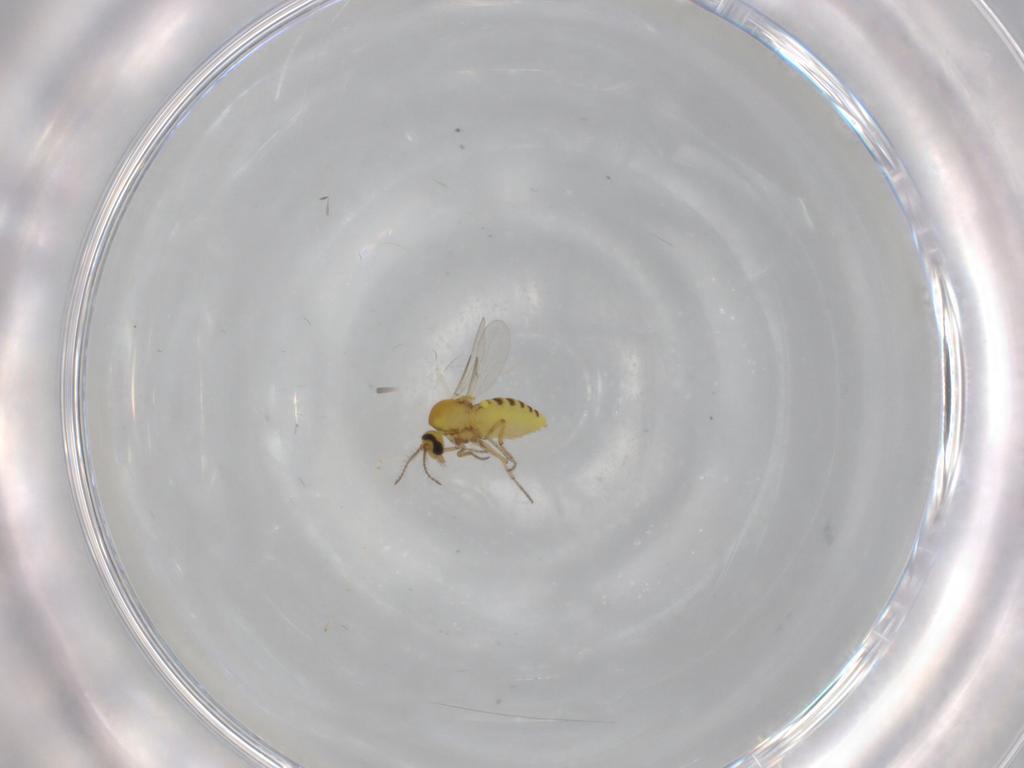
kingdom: Animalia
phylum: Arthropoda
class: Insecta
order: Diptera
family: Ceratopogonidae
